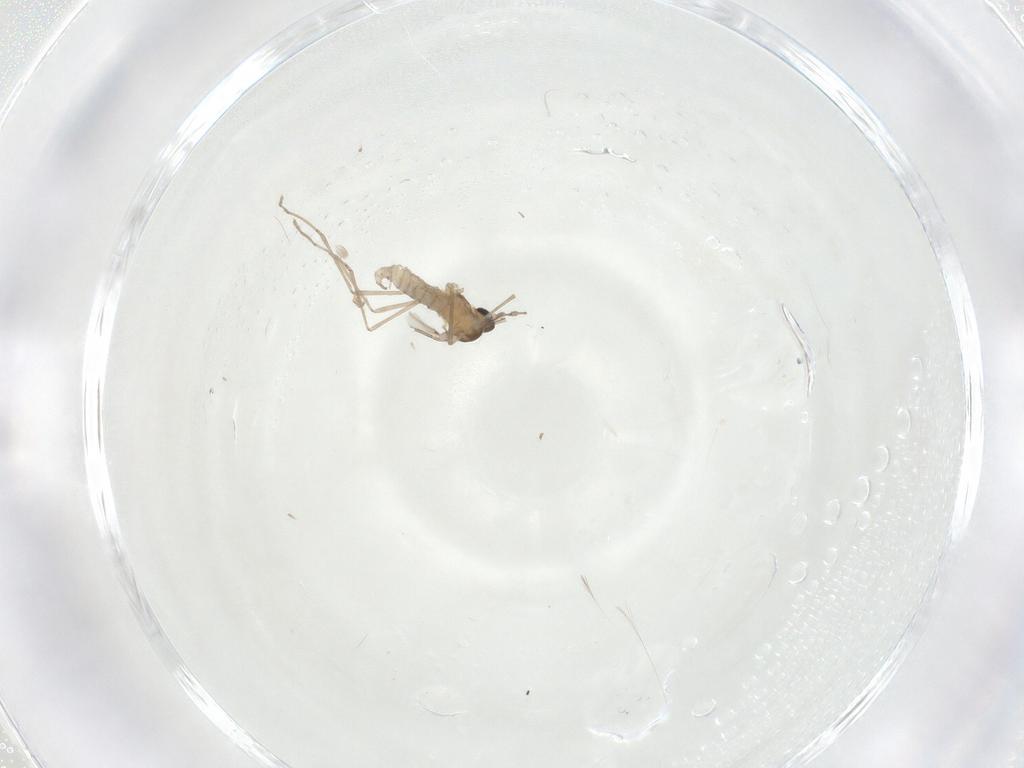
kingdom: Animalia
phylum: Arthropoda
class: Insecta
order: Diptera
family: Cecidomyiidae
